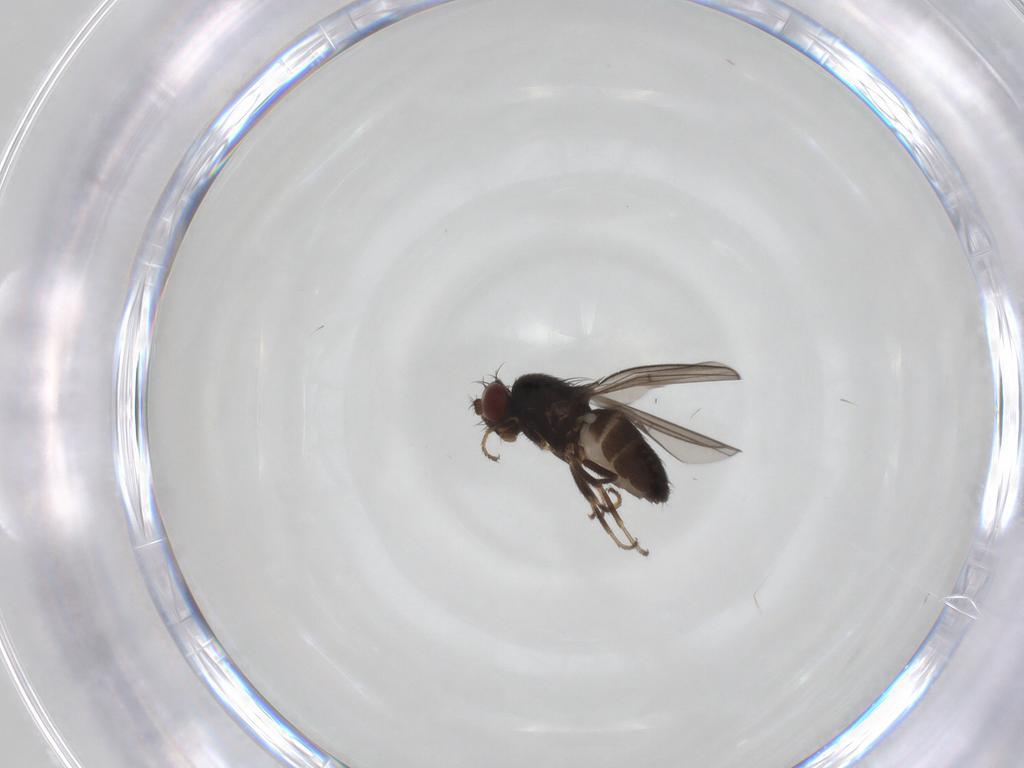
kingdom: Animalia
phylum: Arthropoda
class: Insecta
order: Diptera
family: Ephydridae
